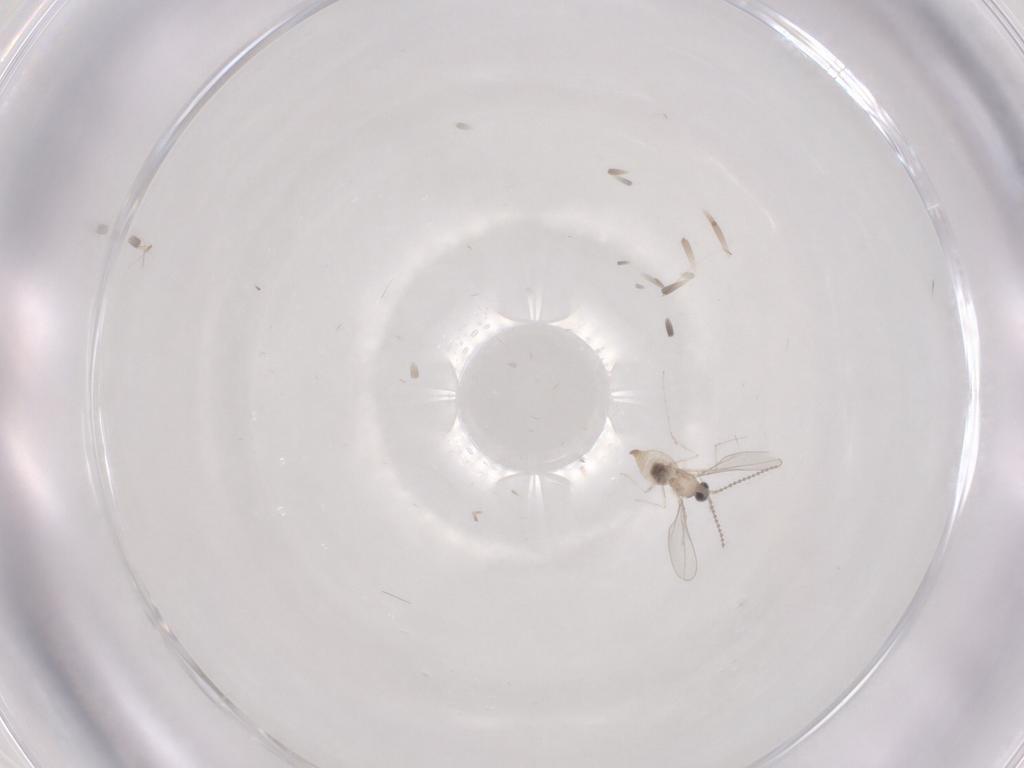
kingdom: Animalia
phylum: Arthropoda
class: Insecta
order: Diptera
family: Cecidomyiidae
